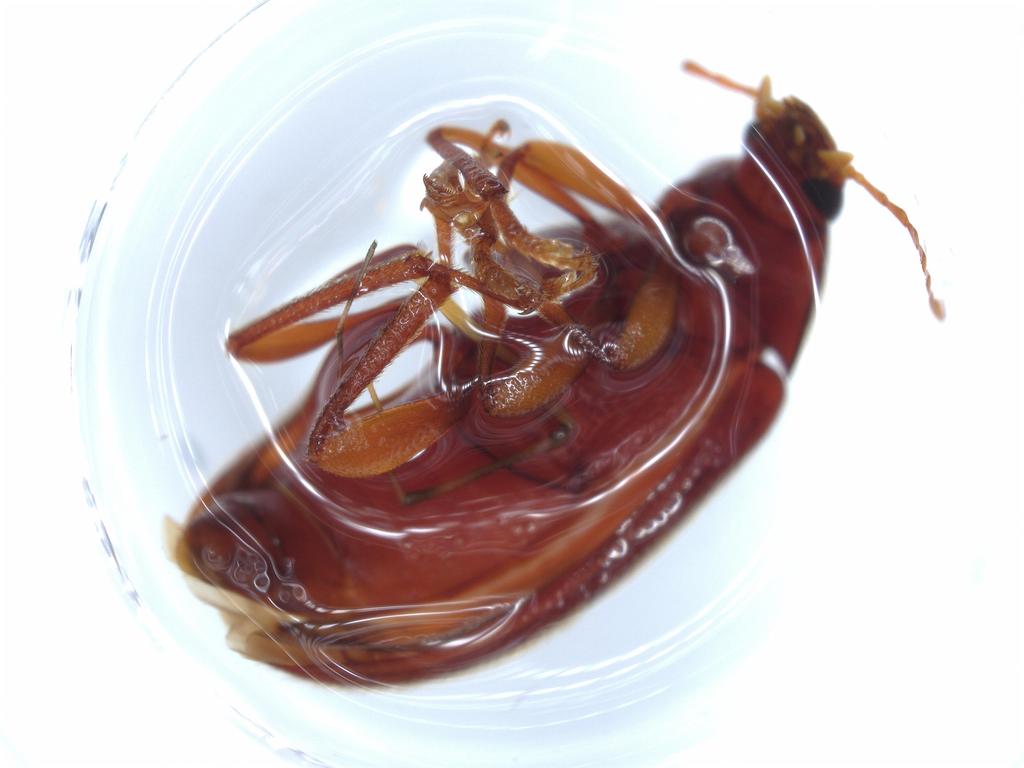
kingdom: Animalia
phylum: Arthropoda
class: Insecta
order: Coleoptera
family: Curculionidae
